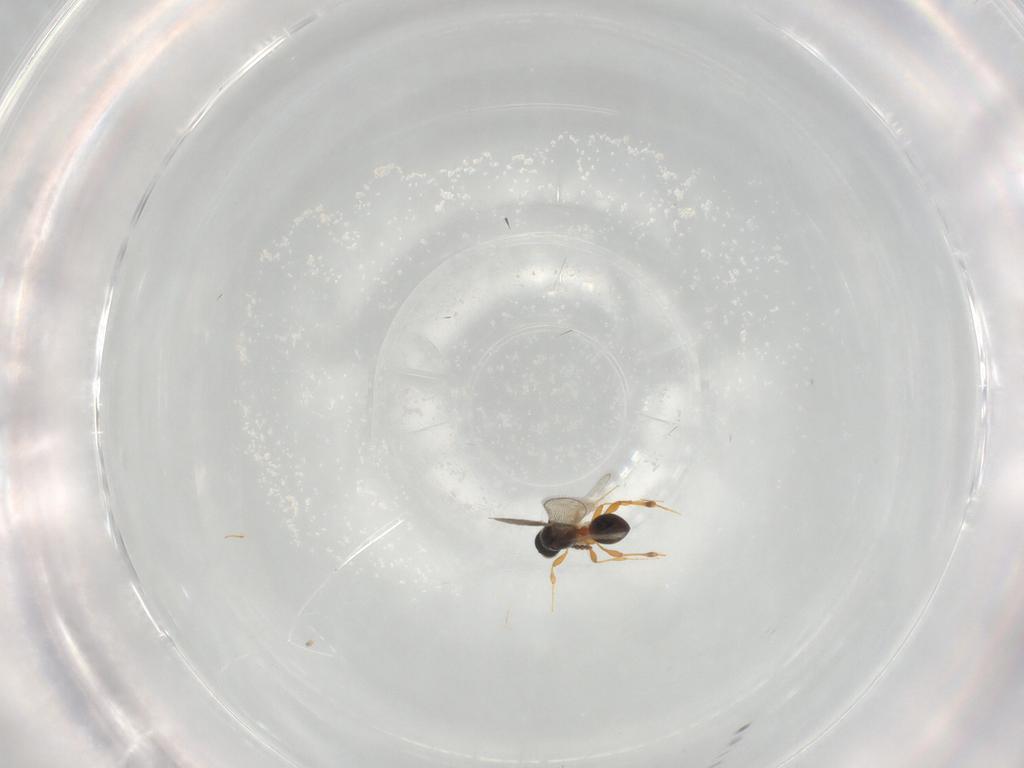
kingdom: Animalia
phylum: Arthropoda
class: Insecta
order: Hymenoptera
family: Platygastridae
